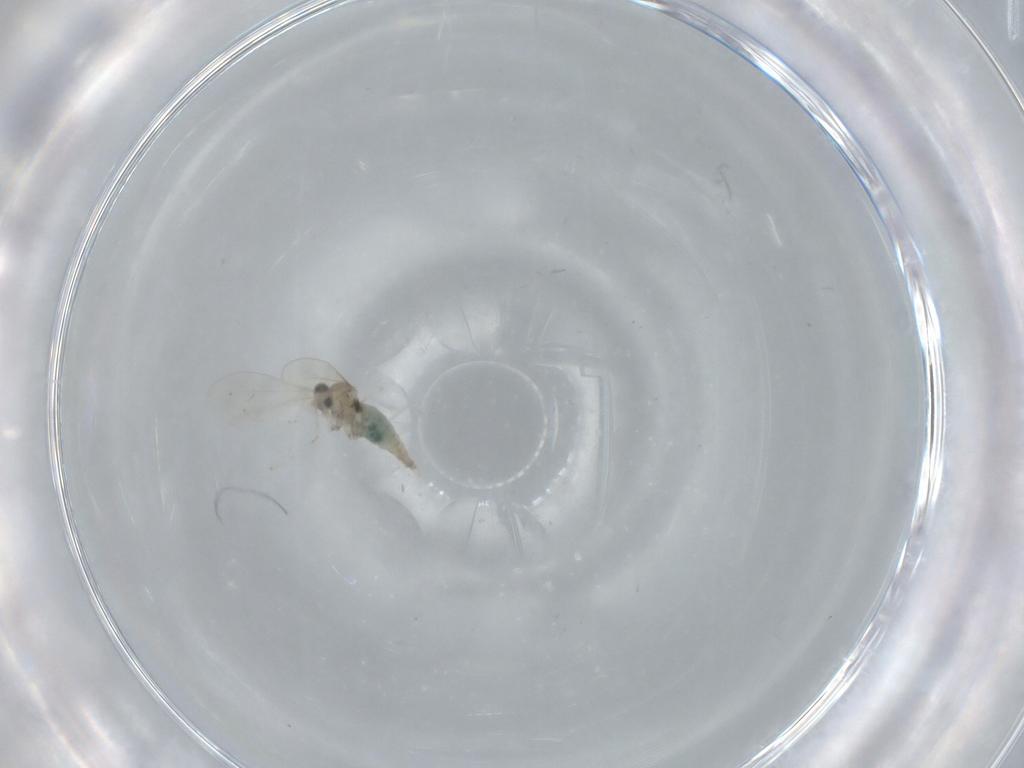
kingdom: Animalia
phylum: Arthropoda
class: Insecta
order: Diptera
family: Cecidomyiidae
